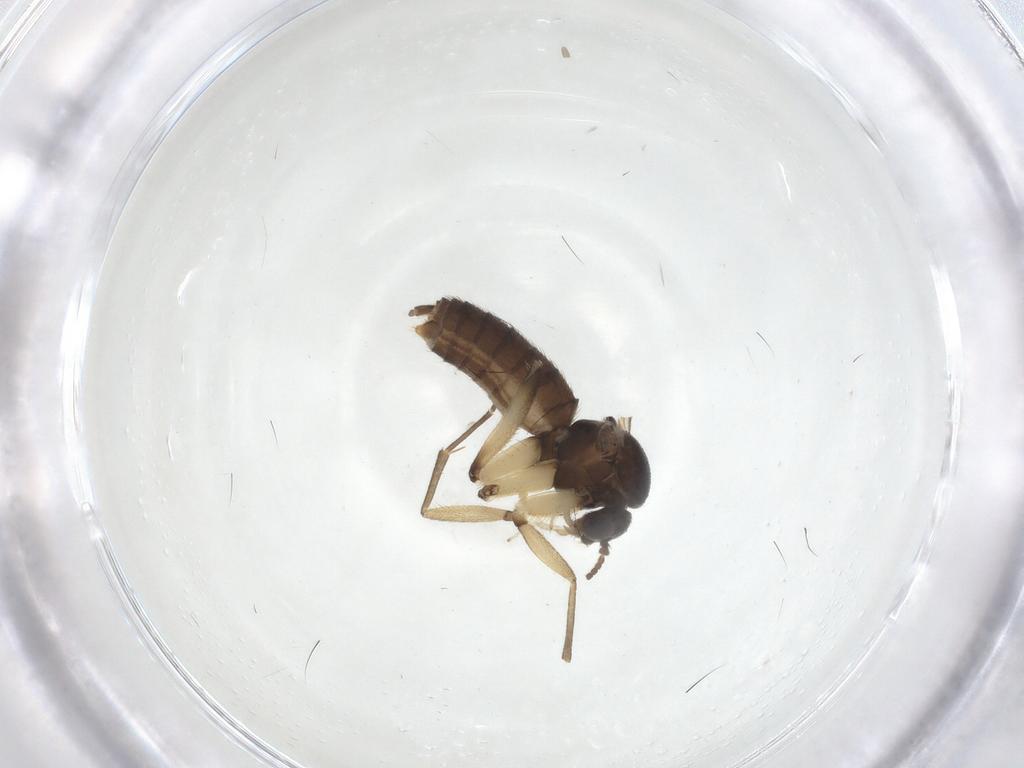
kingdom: Animalia
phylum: Arthropoda
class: Insecta
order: Diptera
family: Mycetophilidae
